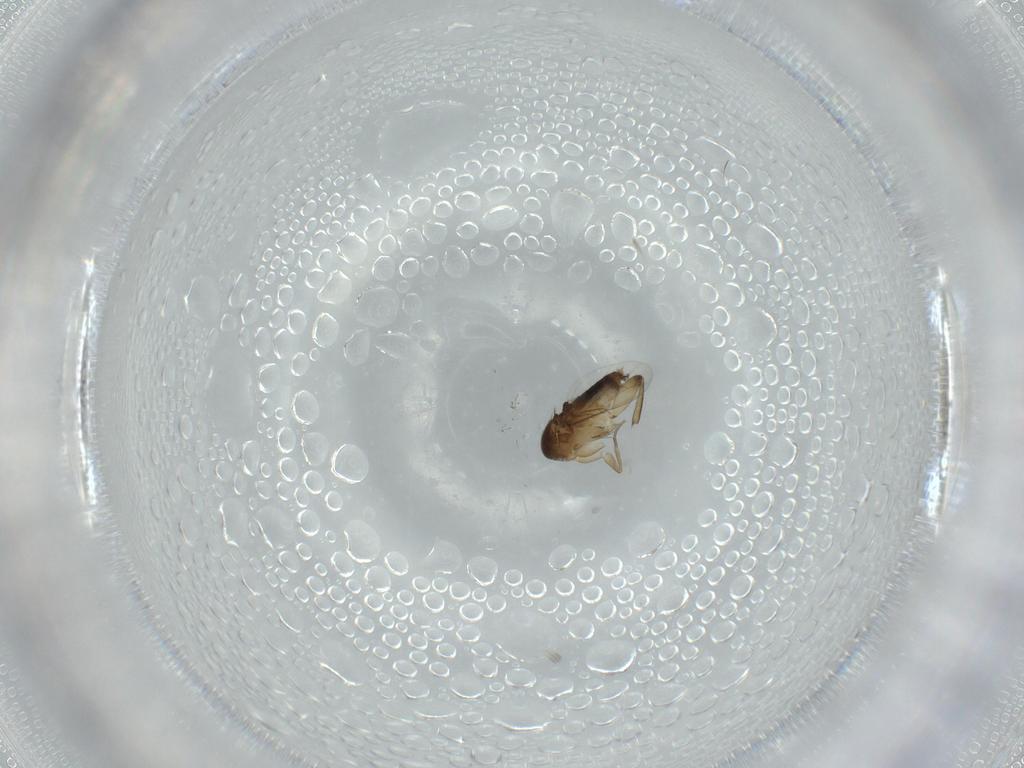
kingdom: Animalia
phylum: Arthropoda
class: Insecta
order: Diptera
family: Phoridae
